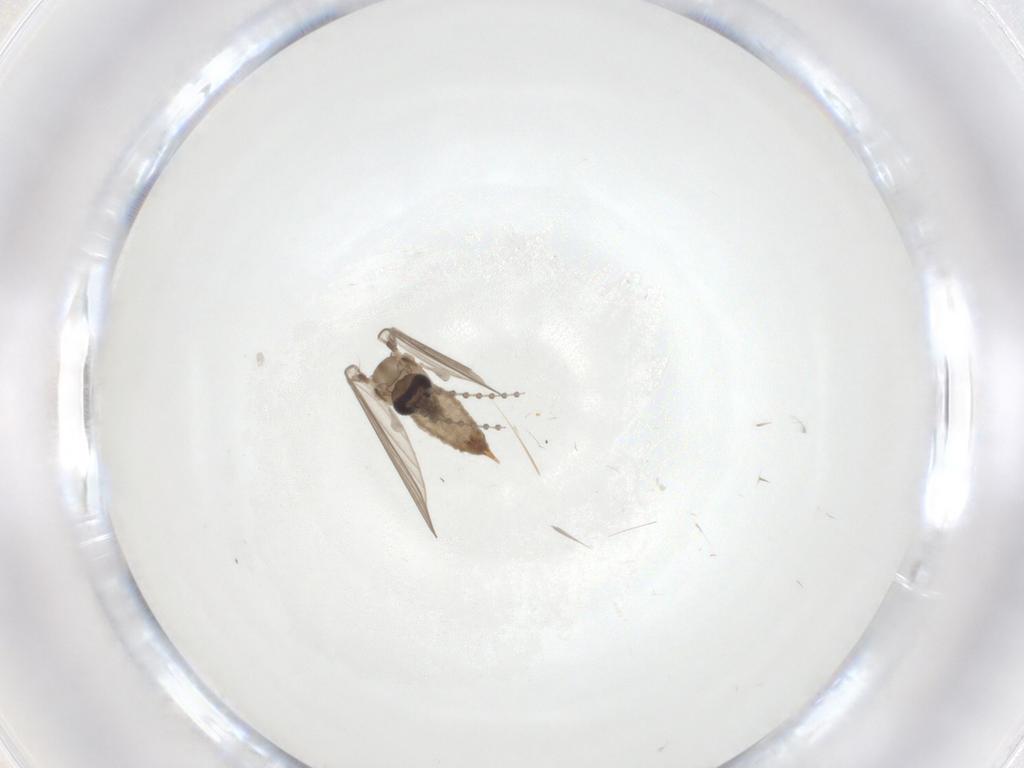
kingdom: Animalia
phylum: Arthropoda
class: Insecta
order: Diptera
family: Psychodidae
